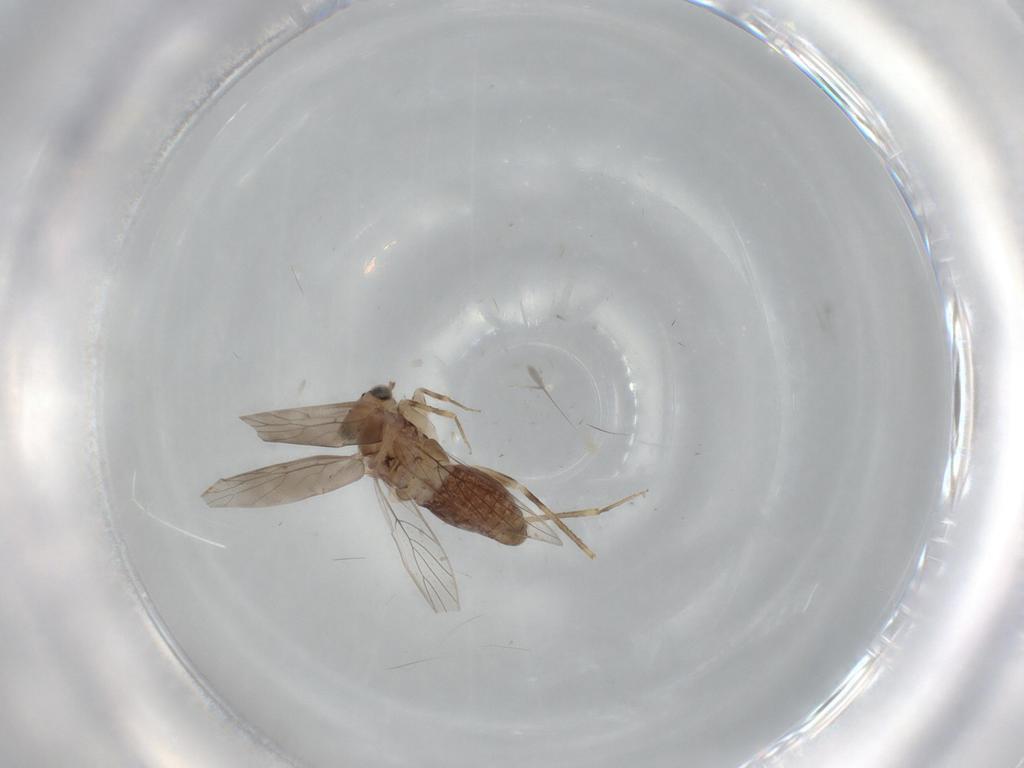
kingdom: Animalia
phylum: Arthropoda
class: Insecta
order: Psocodea
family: Lepidopsocidae
